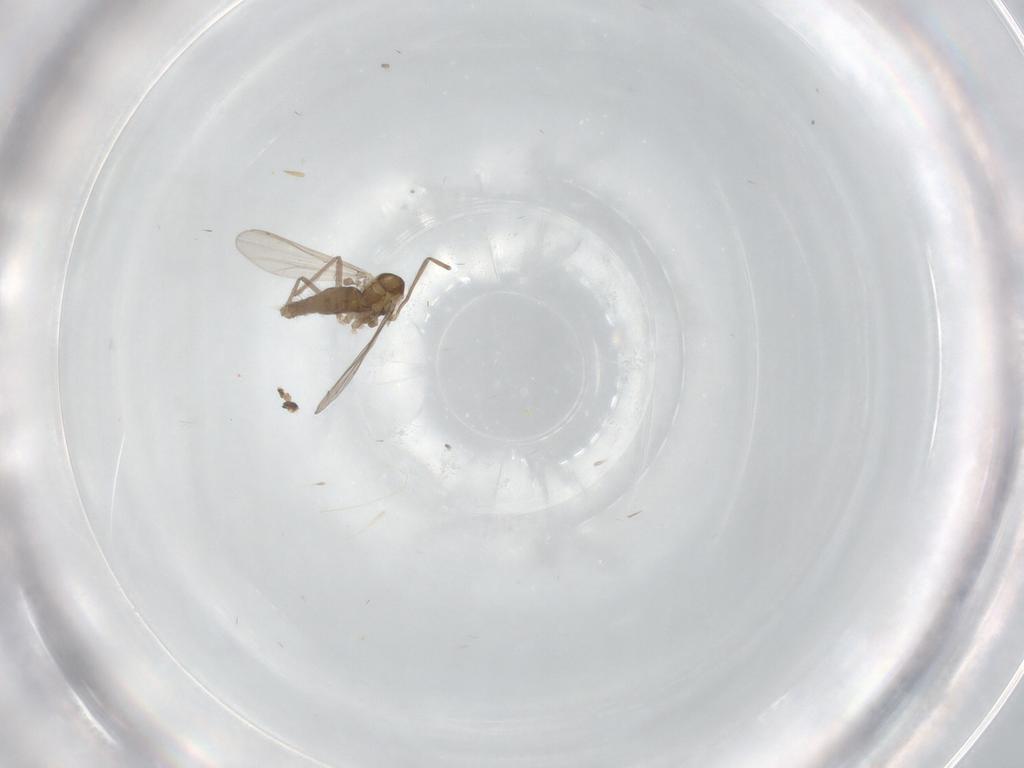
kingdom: Animalia
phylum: Arthropoda
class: Insecta
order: Diptera
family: Chironomidae
